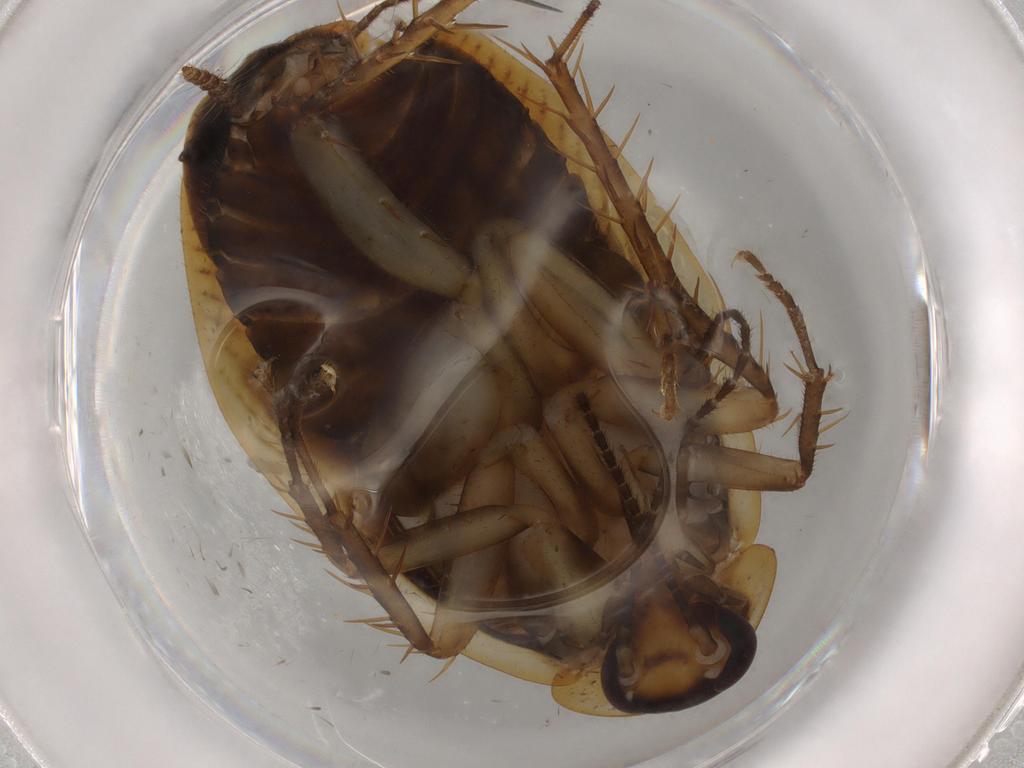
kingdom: Animalia
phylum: Arthropoda
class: Insecta
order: Blattodea
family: Ectobiidae
